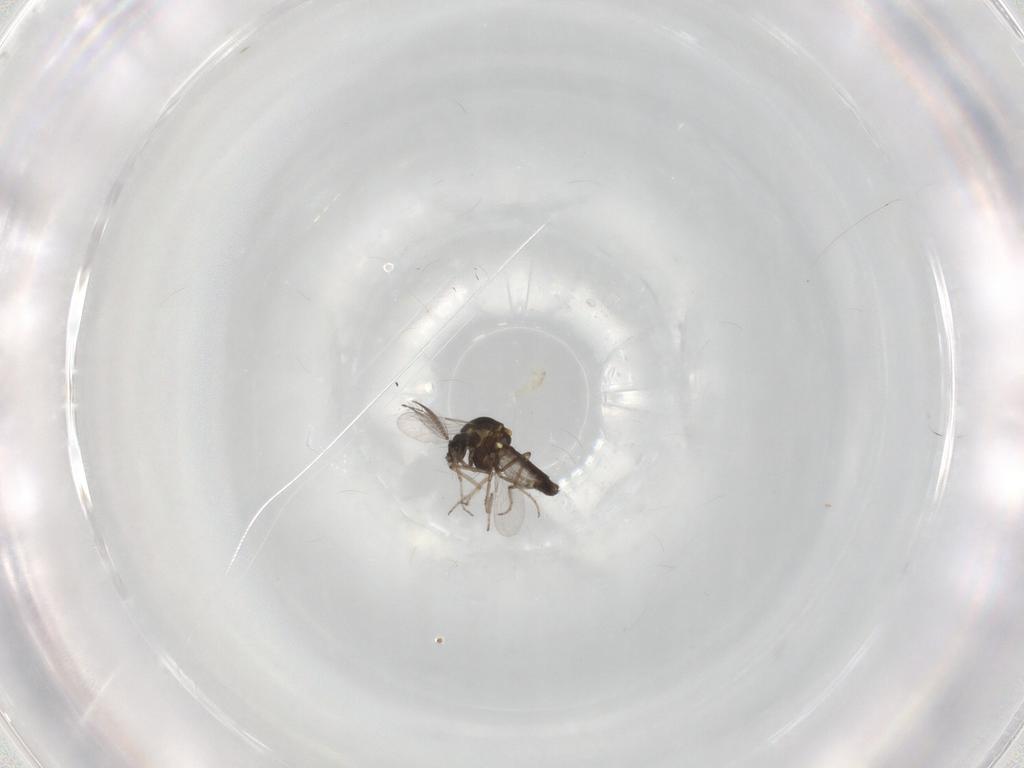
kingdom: Animalia
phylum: Arthropoda
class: Insecta
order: Diptera
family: Ceratopogonidae
